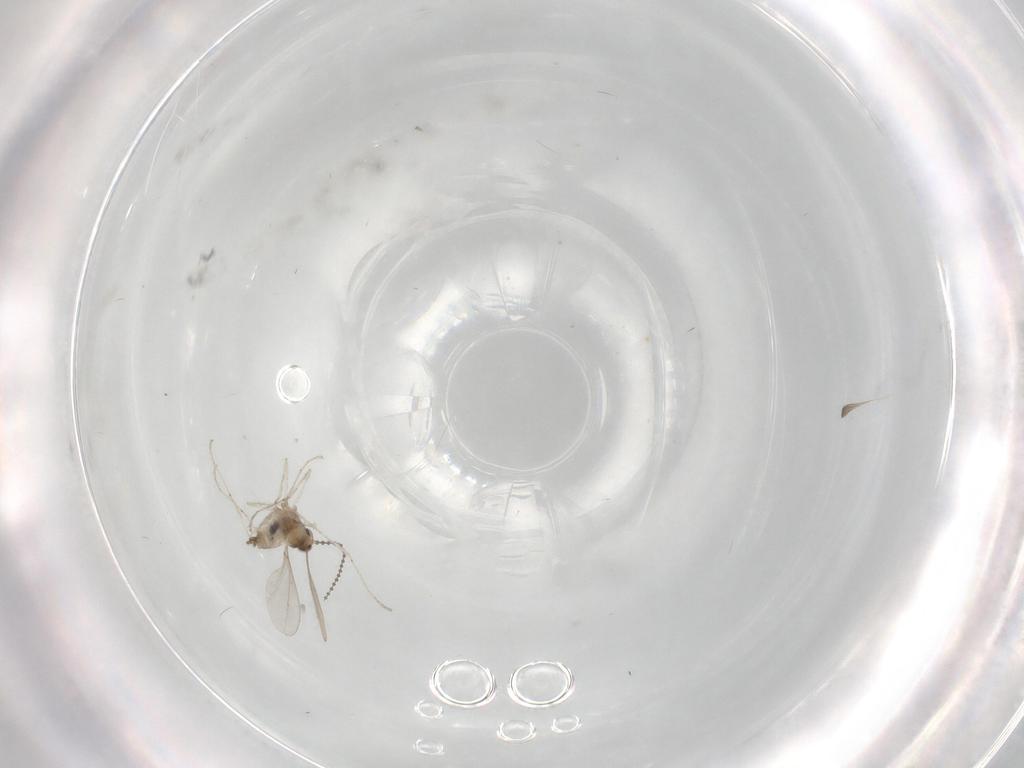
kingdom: Animalia
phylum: Arthropoda
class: Insecta
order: Diptera
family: Cecidomyiidae
